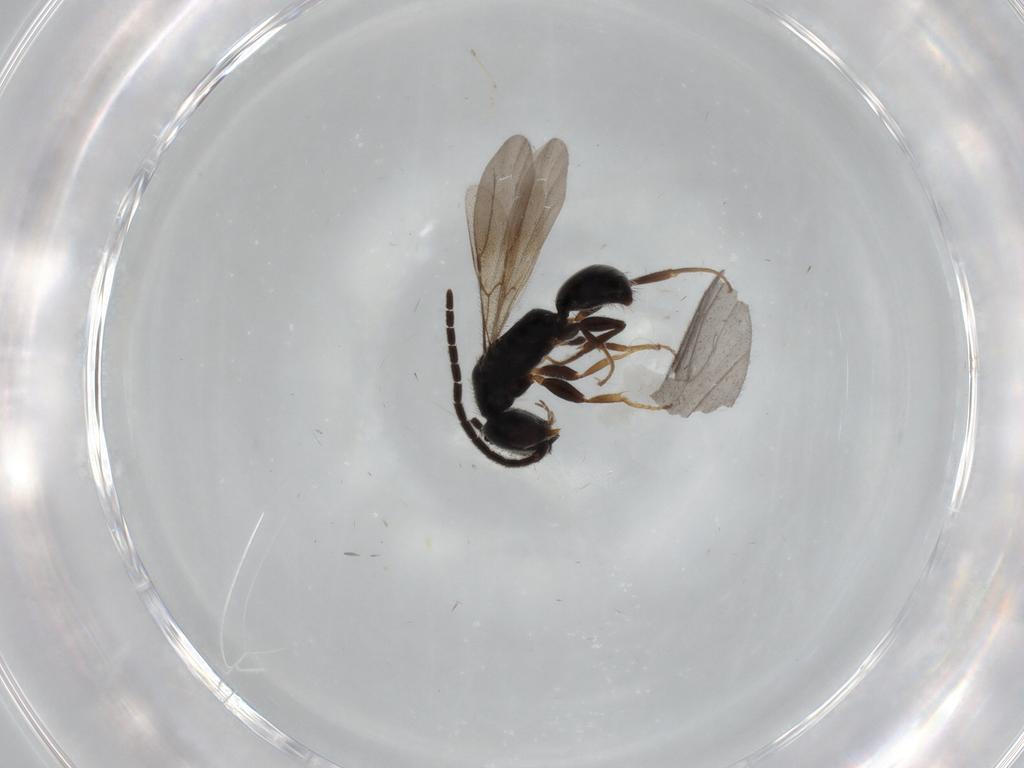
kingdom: Animalia
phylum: Arthropoda
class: Insecta
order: Hymenoptera
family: Bethylidae
